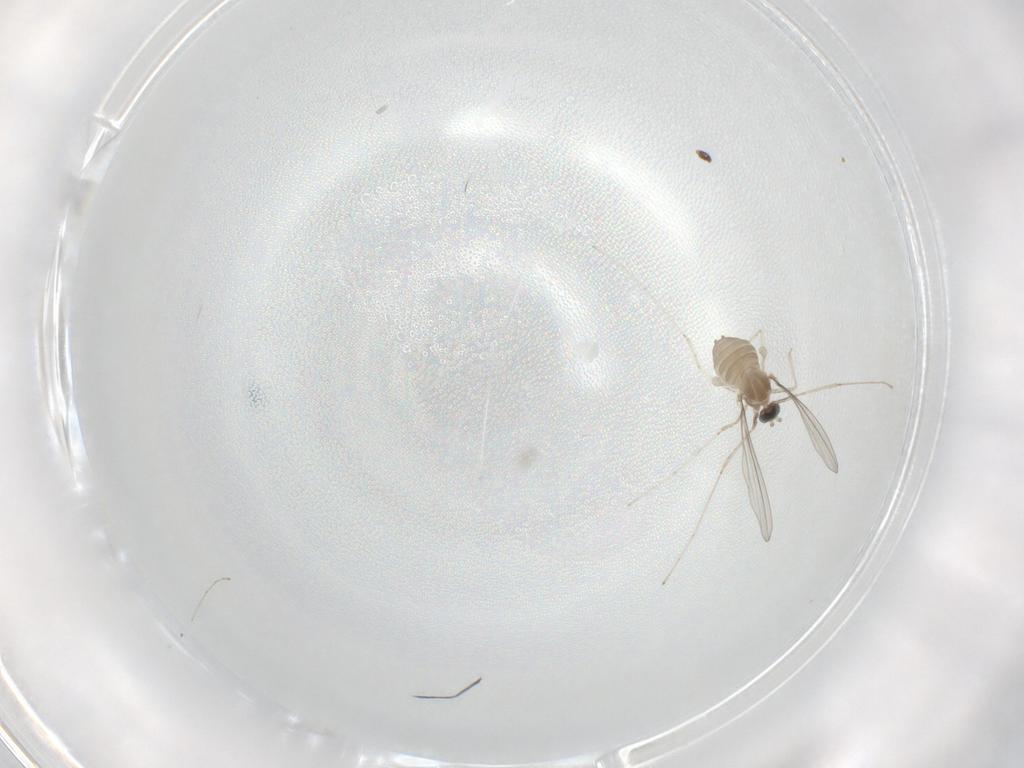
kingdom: Animalia
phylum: Arthropoda
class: Insecta
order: Diptera
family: Cecidomyiidae
